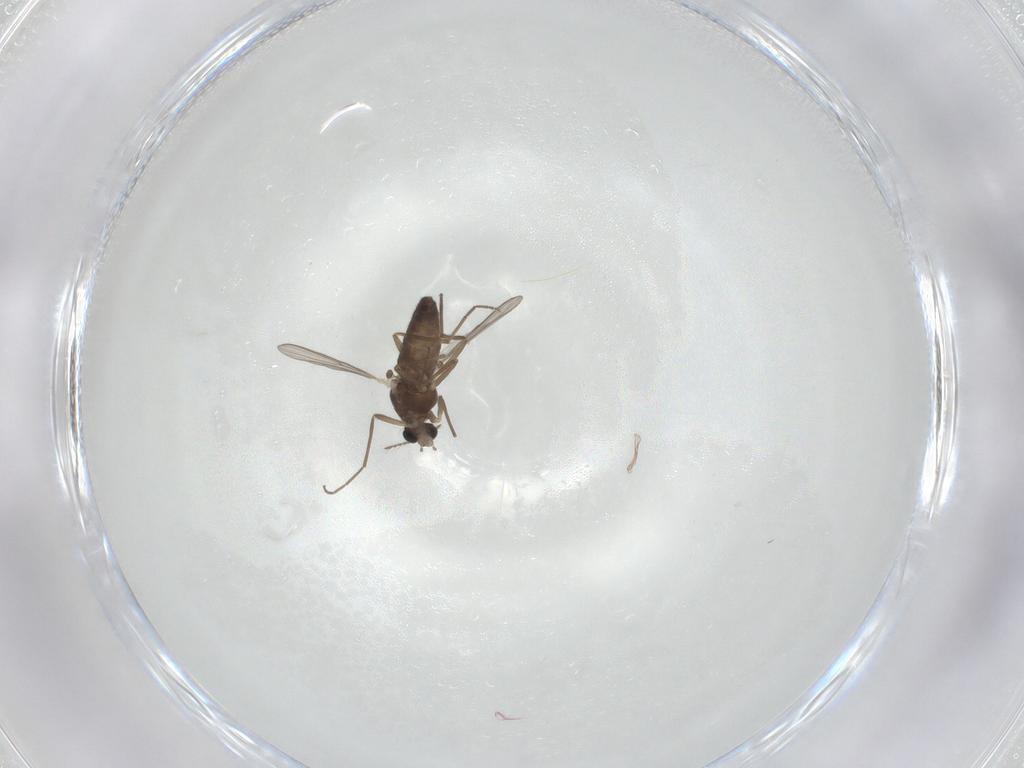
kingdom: Animalia
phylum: Arthropoda
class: Insecta
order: Diptera
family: Chironomidae
